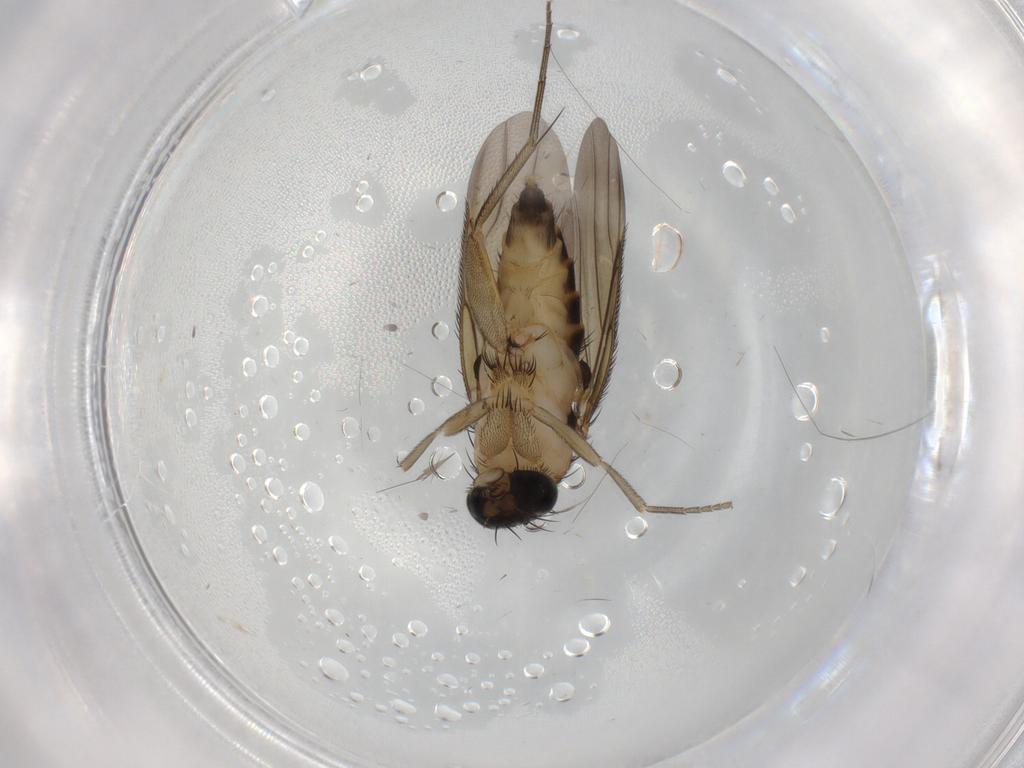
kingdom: Animalia
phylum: Arthropoda
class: Insecta
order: Diptera
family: Phoridae
